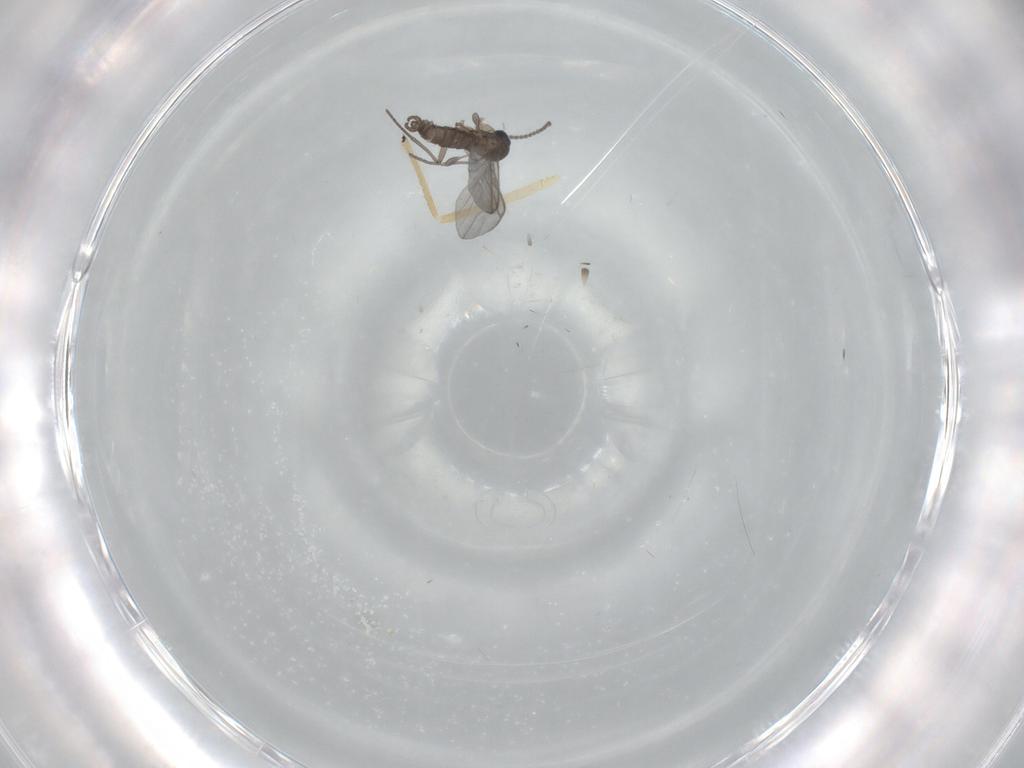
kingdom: Animalia
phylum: Arthropoda
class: Insecta
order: Diptera
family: Chironomidae
